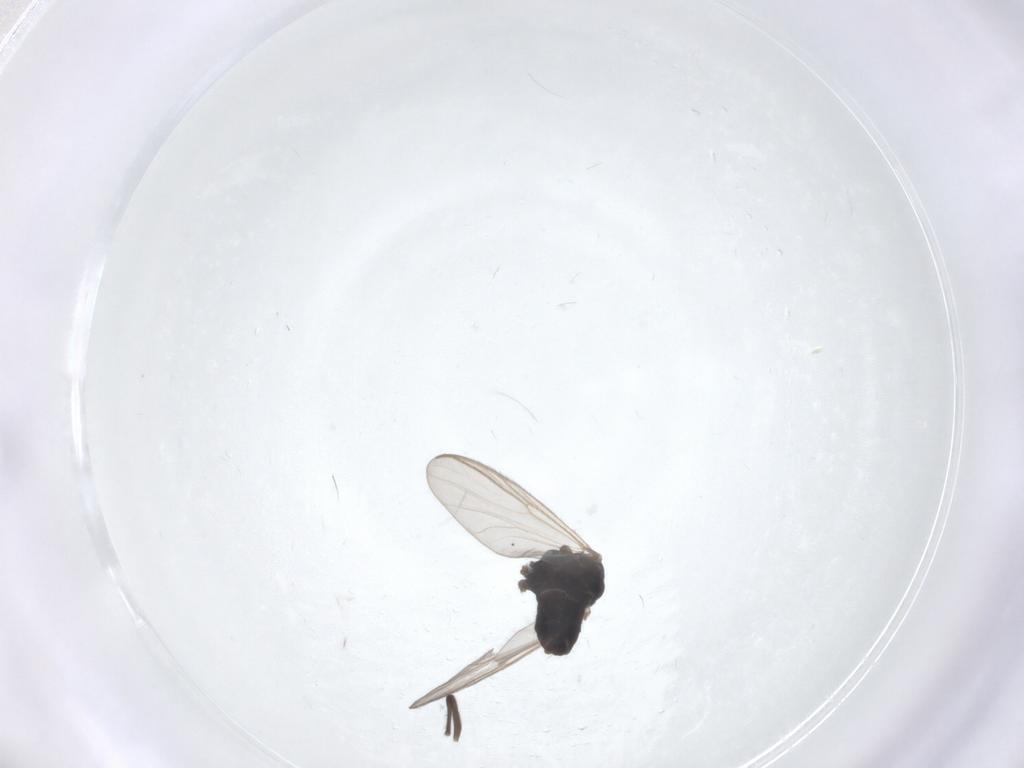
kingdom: Animalia
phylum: Arthropoda
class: Insecta
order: Diptera
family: Chironomidae
